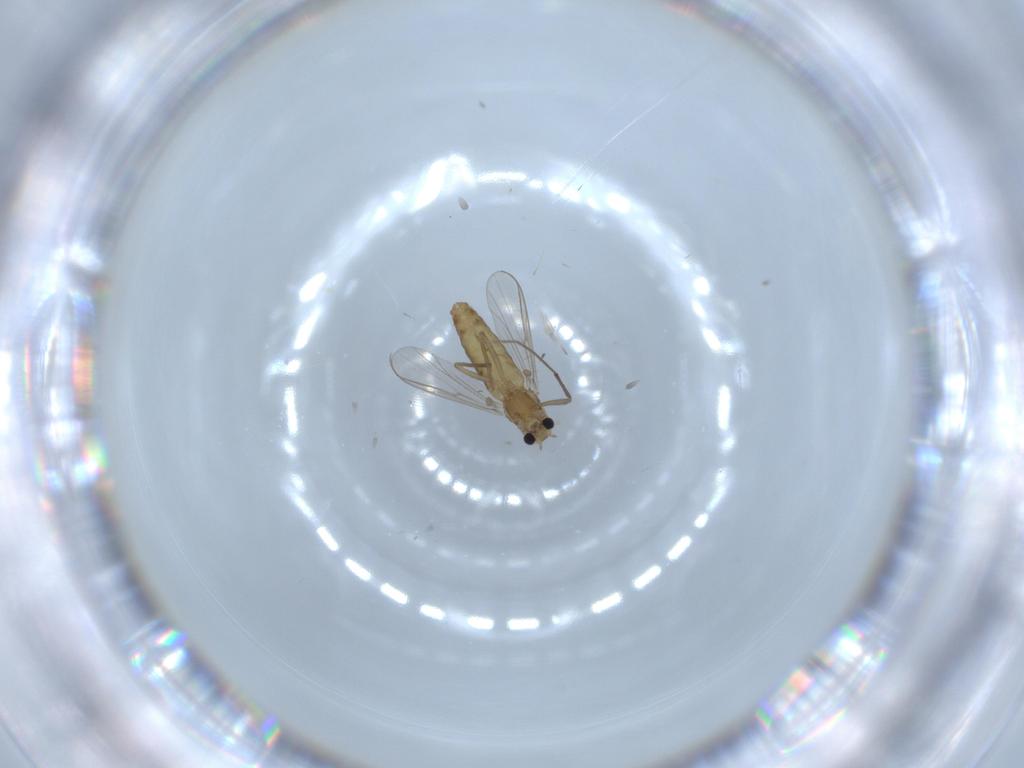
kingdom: Animalia
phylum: Arthropoda
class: Insecta
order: Diptera
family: Chironomidae
